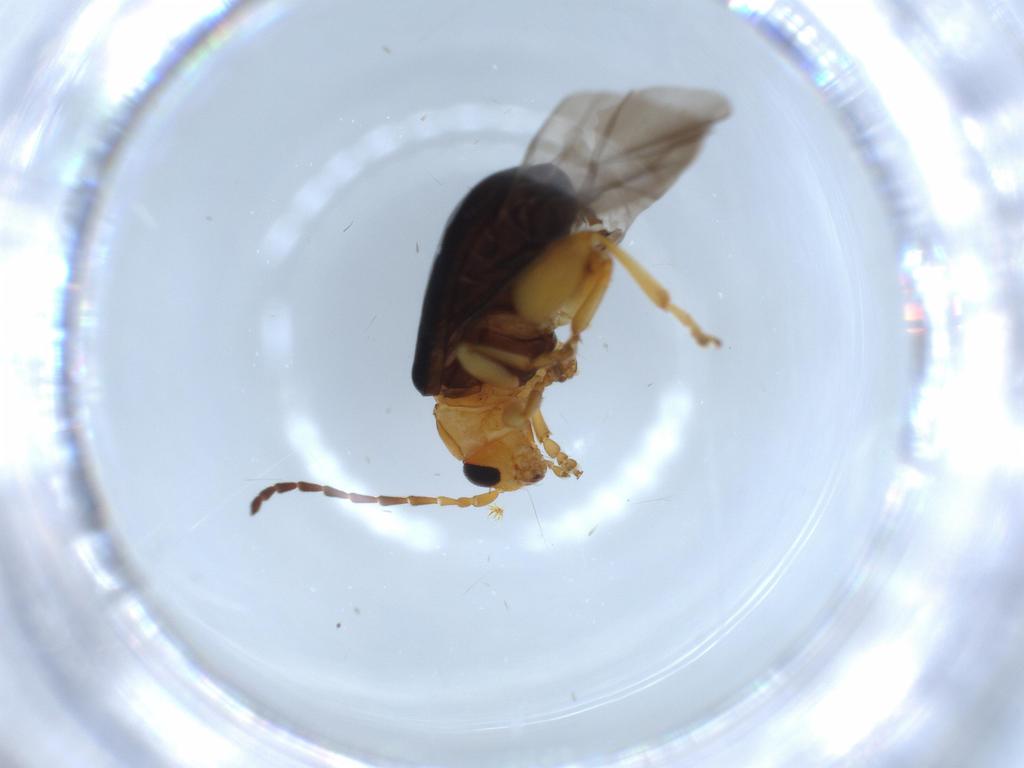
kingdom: Animalia
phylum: Arthropoda
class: Insecta
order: Coleoptera
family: Chrysomelidae
